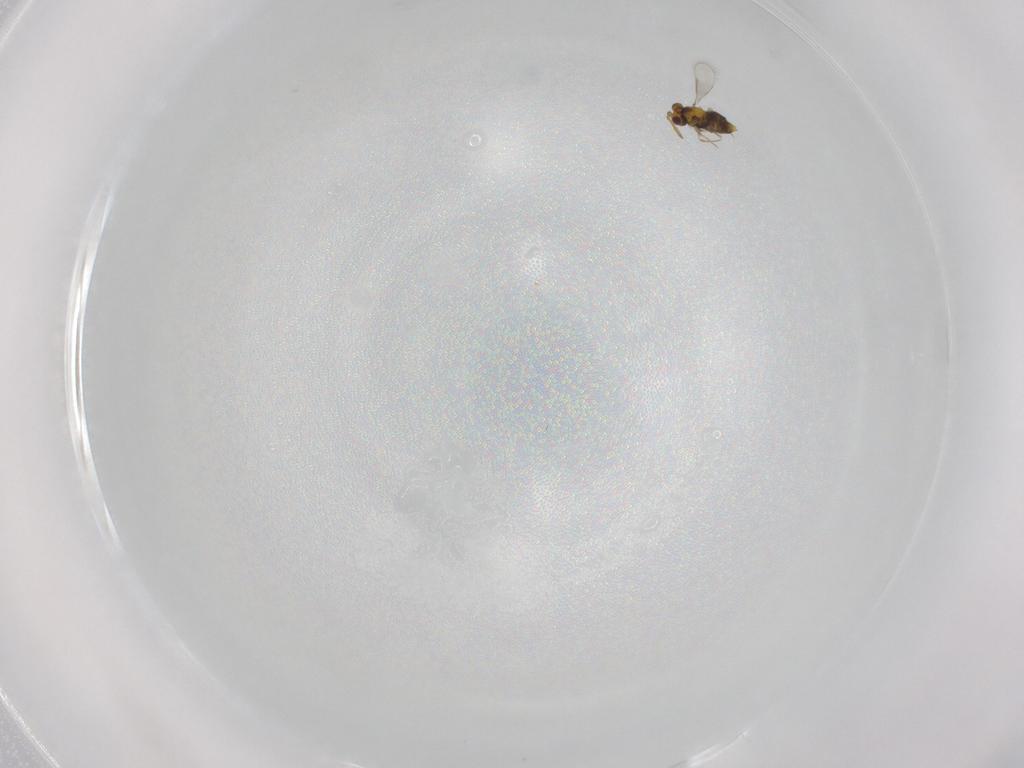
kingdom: Animalia
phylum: Arthropoda
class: Insecta
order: Hymenoptera
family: Aphelinidae
